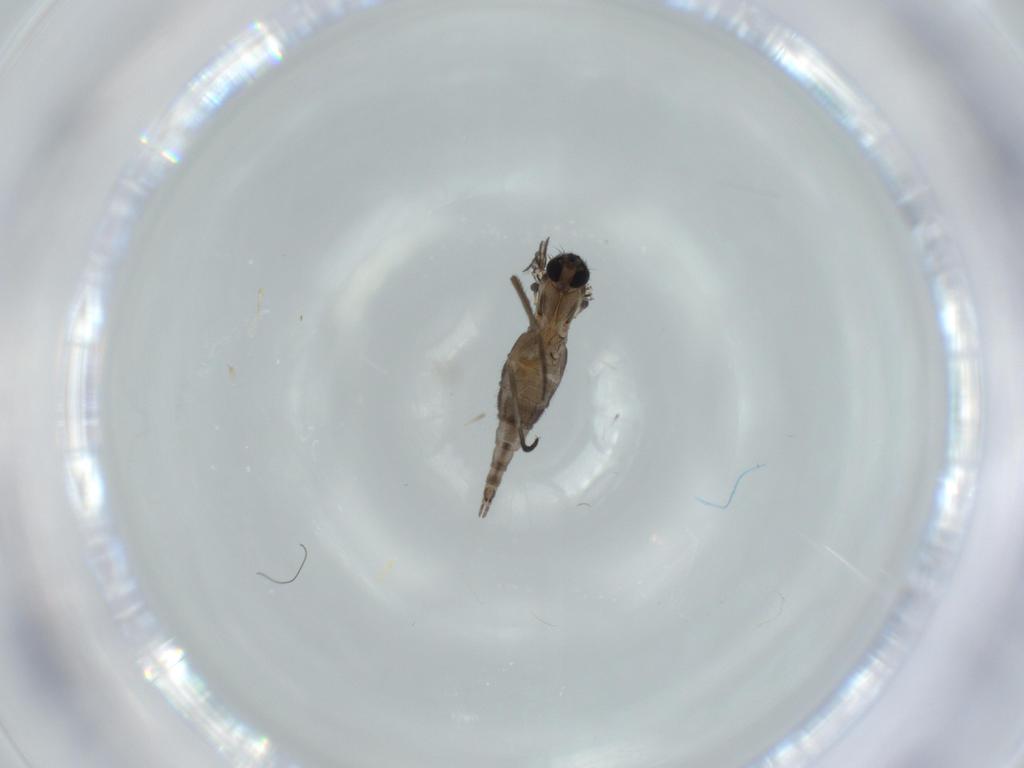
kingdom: Animalia
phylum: Arthropoda
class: Insecta
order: Diptera
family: Sciaridae
